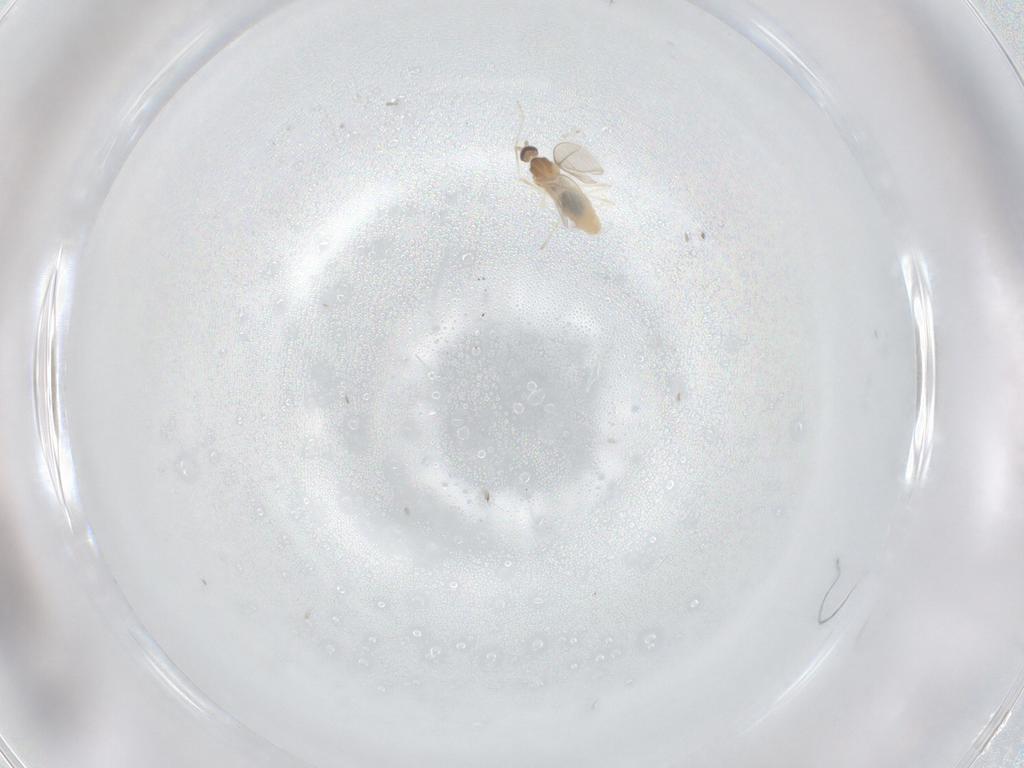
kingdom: Animalia
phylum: Arthropoda
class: Insecta
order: Diptera
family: Cecidomyiidae
